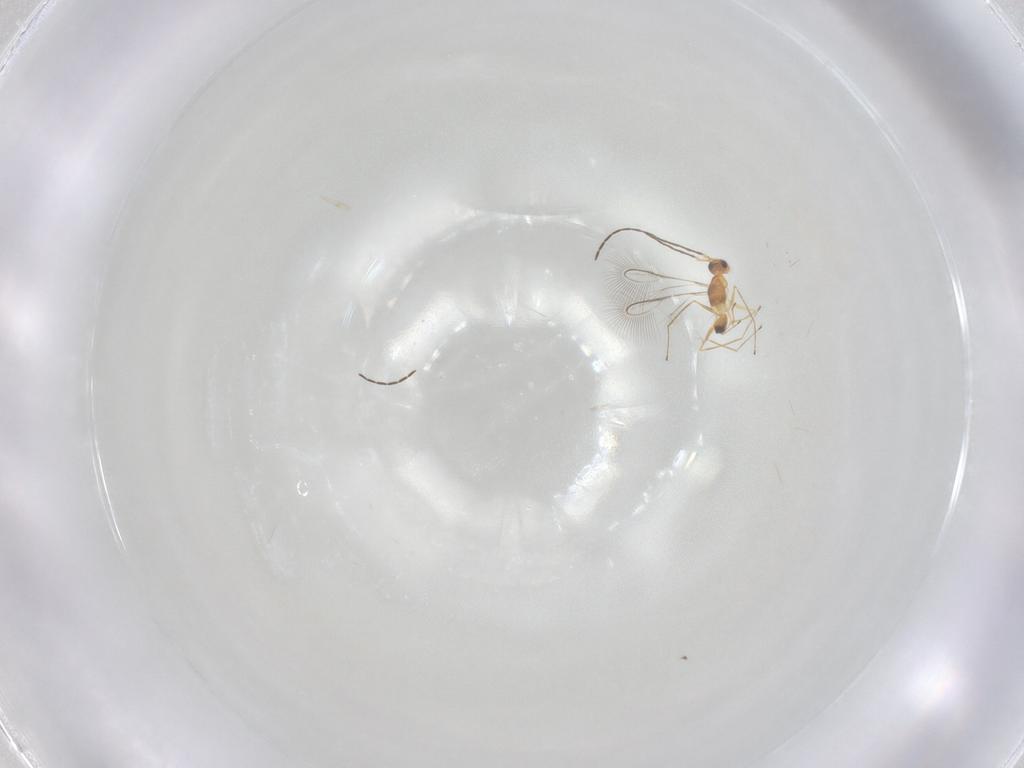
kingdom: Animalia
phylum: Arthropoda
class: Insecta
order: Hymenoptera
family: Mymaridae
